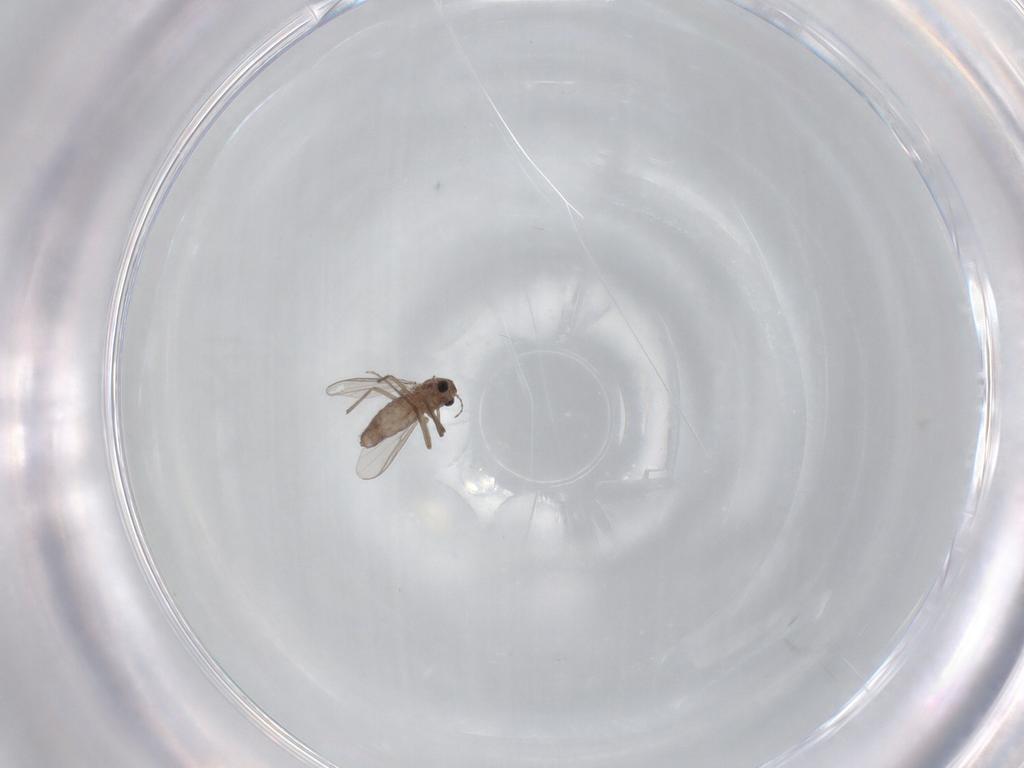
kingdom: Animalia
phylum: Arthropoda
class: Insecta
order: Diptera
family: Chironomidae
